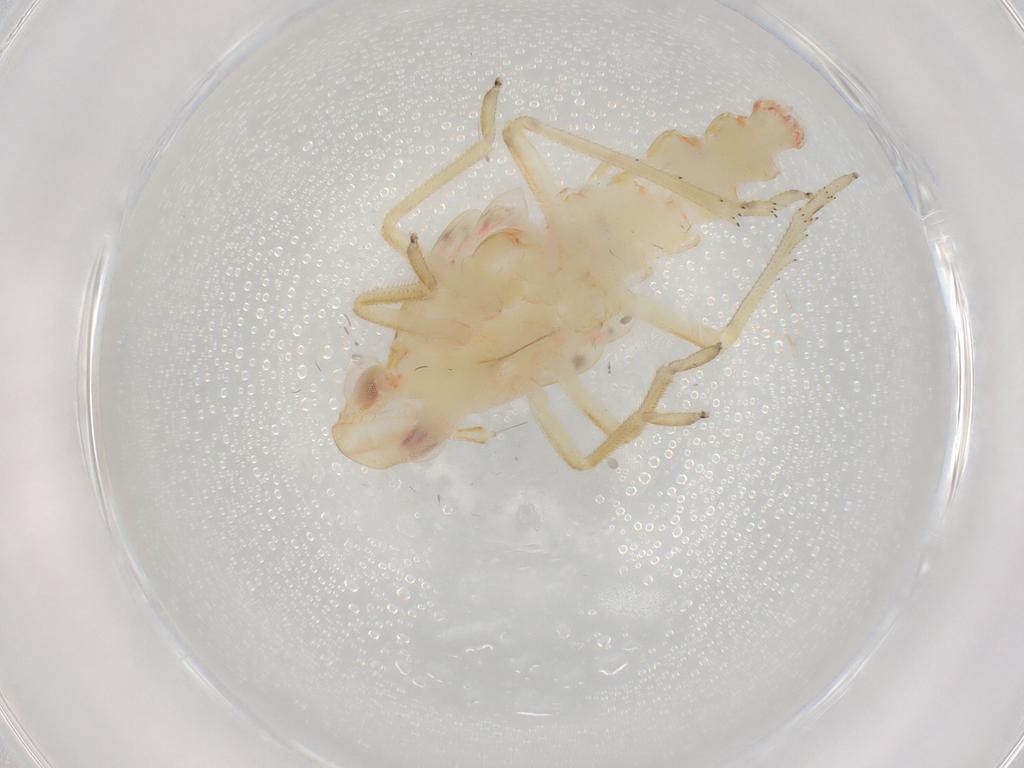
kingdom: Animalia
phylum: Arthropoda
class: Insecta
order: Hemiptera
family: Tropiduchidae
